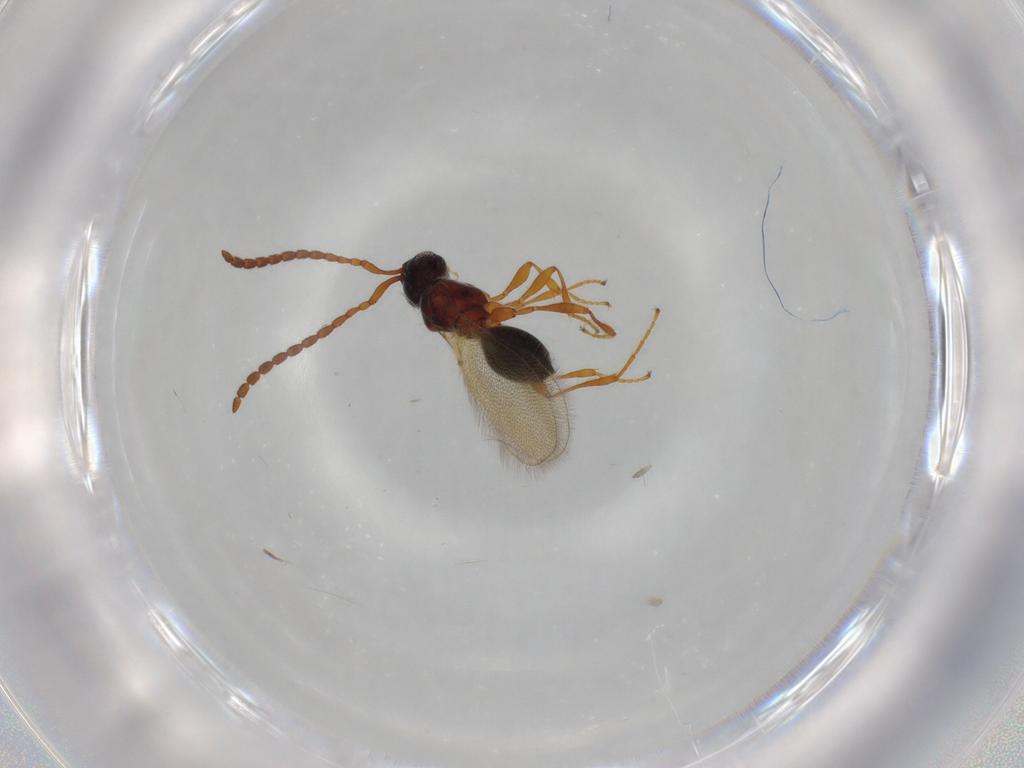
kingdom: Animalia
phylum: Arthropoda
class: Insecta
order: Hymenoptera
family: Diapriidae
